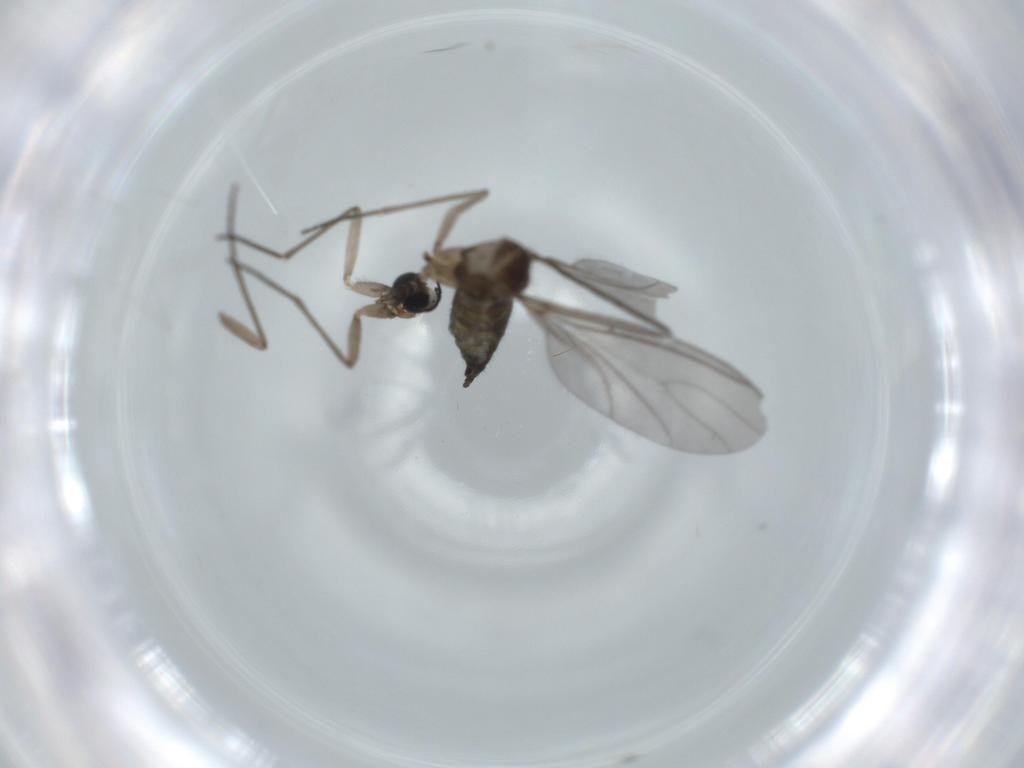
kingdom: Animalia
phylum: Arthropoda
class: Insecta
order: Diptera
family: Sciaridae
